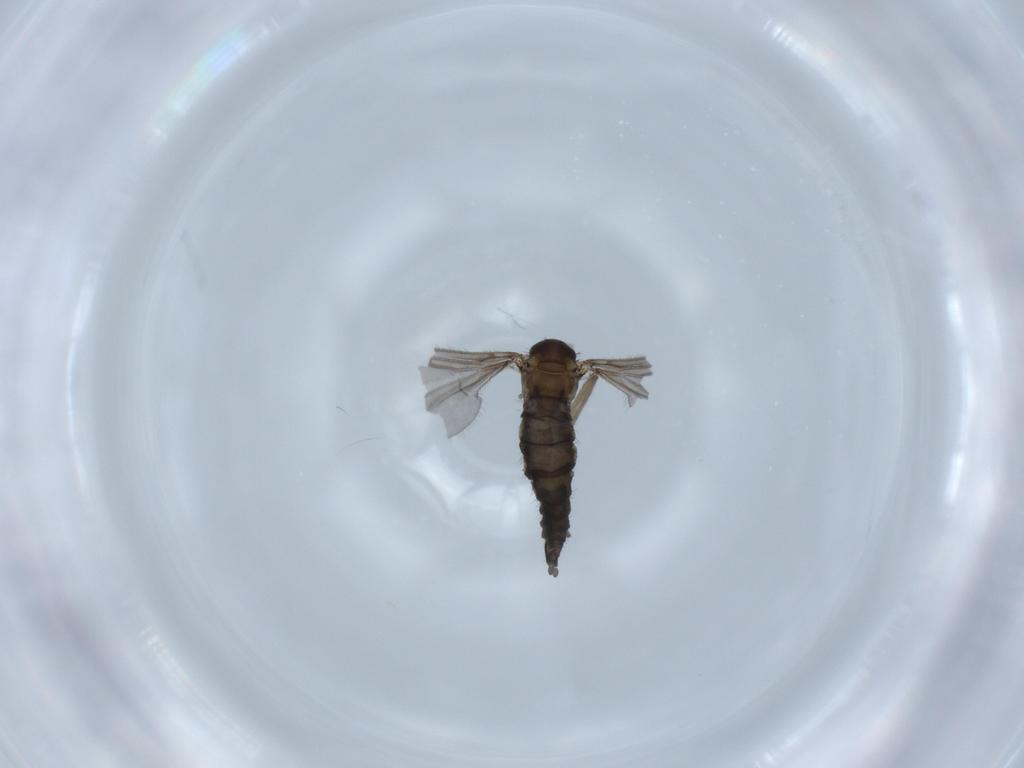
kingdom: Animalia
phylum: Arthropoda
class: Insecta
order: Diptera
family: Sciaridae
